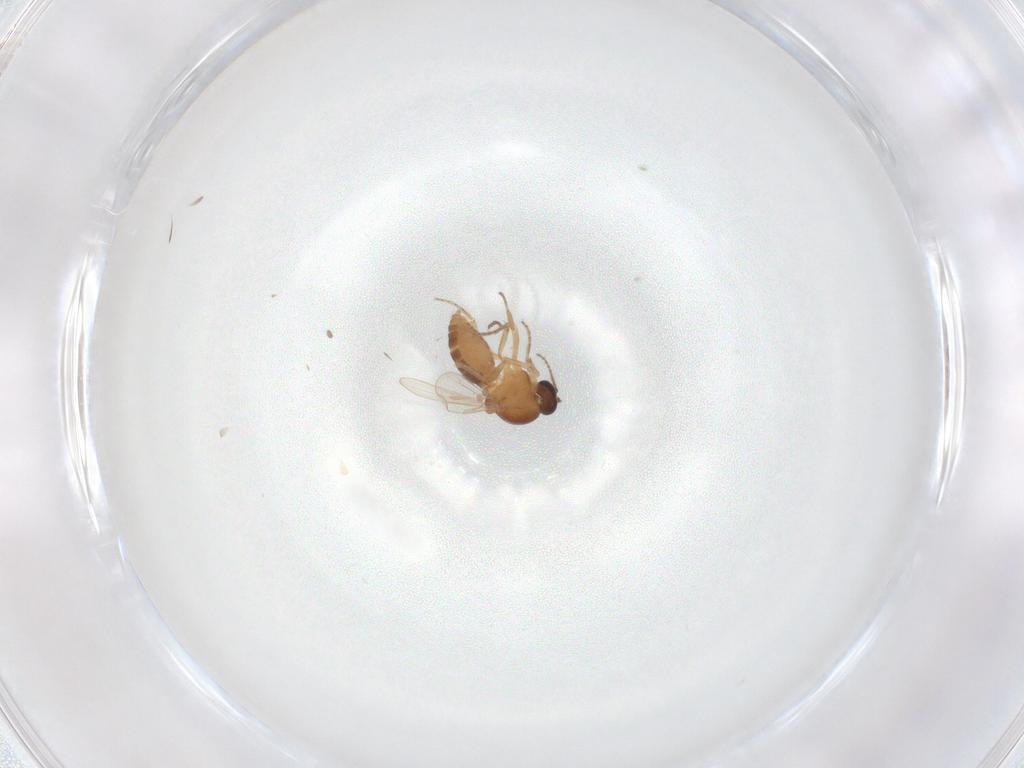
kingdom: Animalia
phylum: Arthropoda
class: Insecta
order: Diptera
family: Ceratopogonidae
